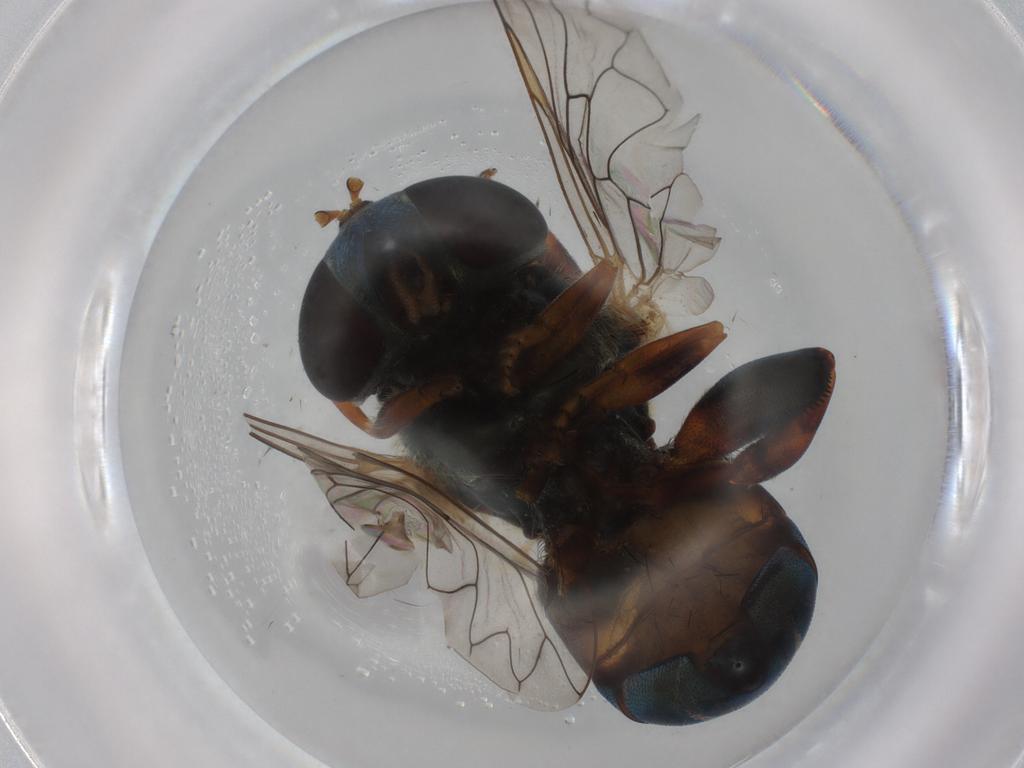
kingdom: Animalia
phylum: Arthropoda
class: Insecta
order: Diptera
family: Syrphidae
